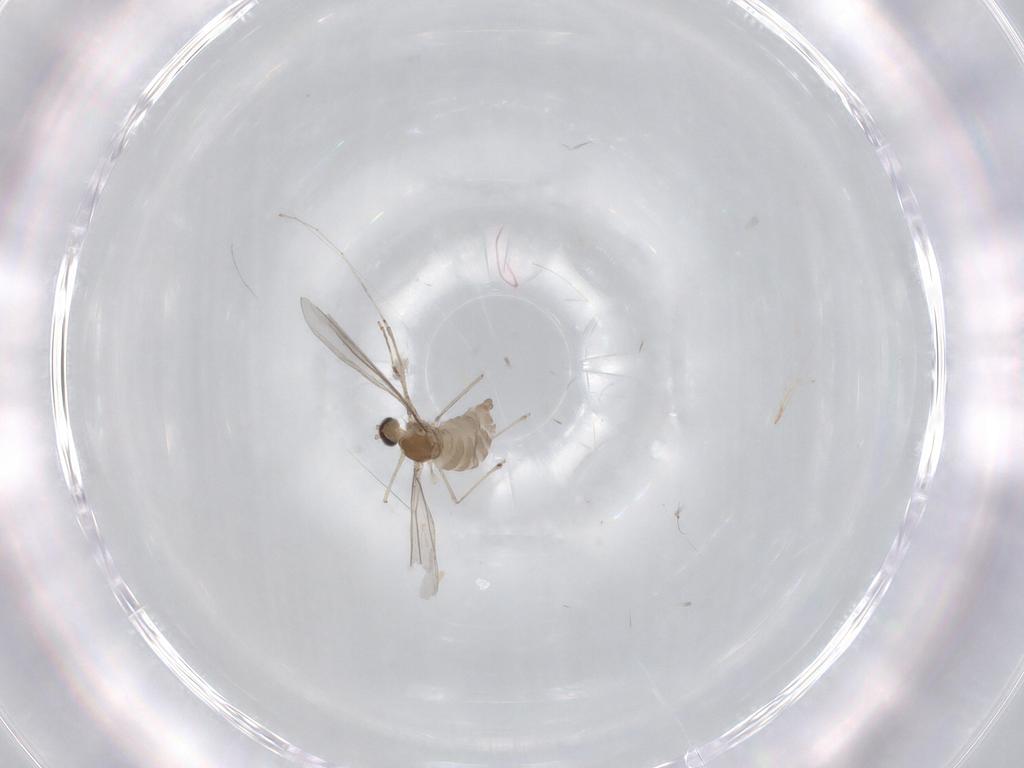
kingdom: Animalia
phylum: Arthropoda
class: Insecta
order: Diptera
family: Cecidomyiidae
